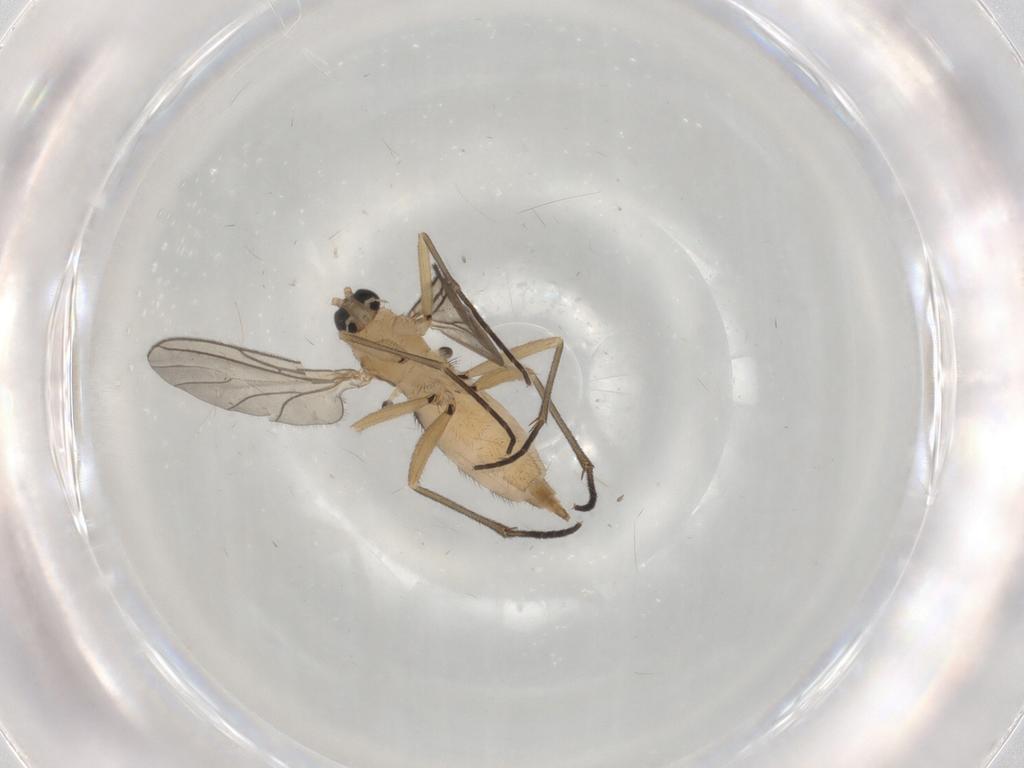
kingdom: Animalia
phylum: Arthropoda
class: Insecta
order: Diptera
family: Sciaridae
